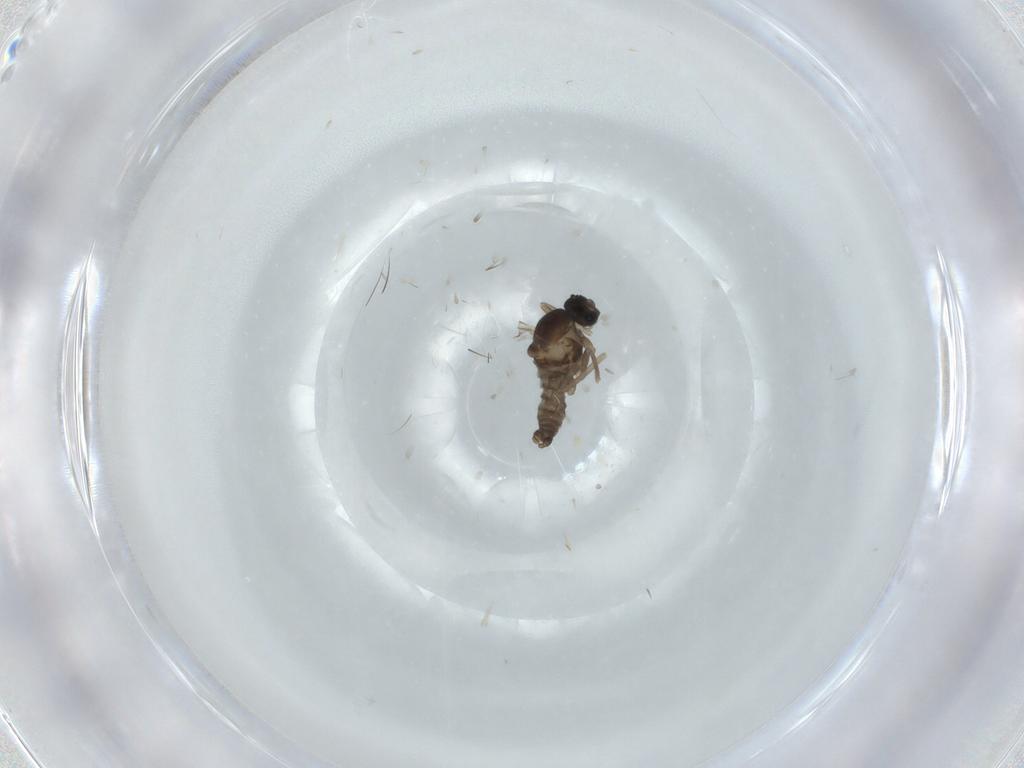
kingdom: Animalia
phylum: Arthropoda
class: Insecta
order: Diptera
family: Cecidomyiidae
